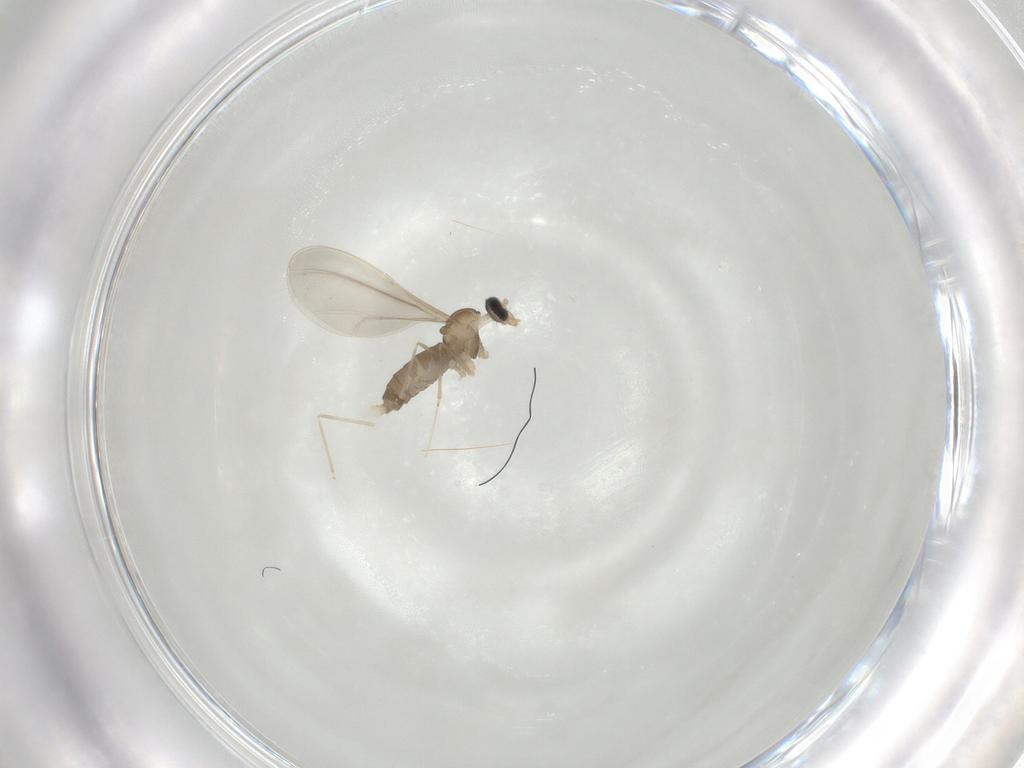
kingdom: Animalia
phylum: Arthropoda
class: Insecta
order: Diptera
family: Cecidomyiidae
